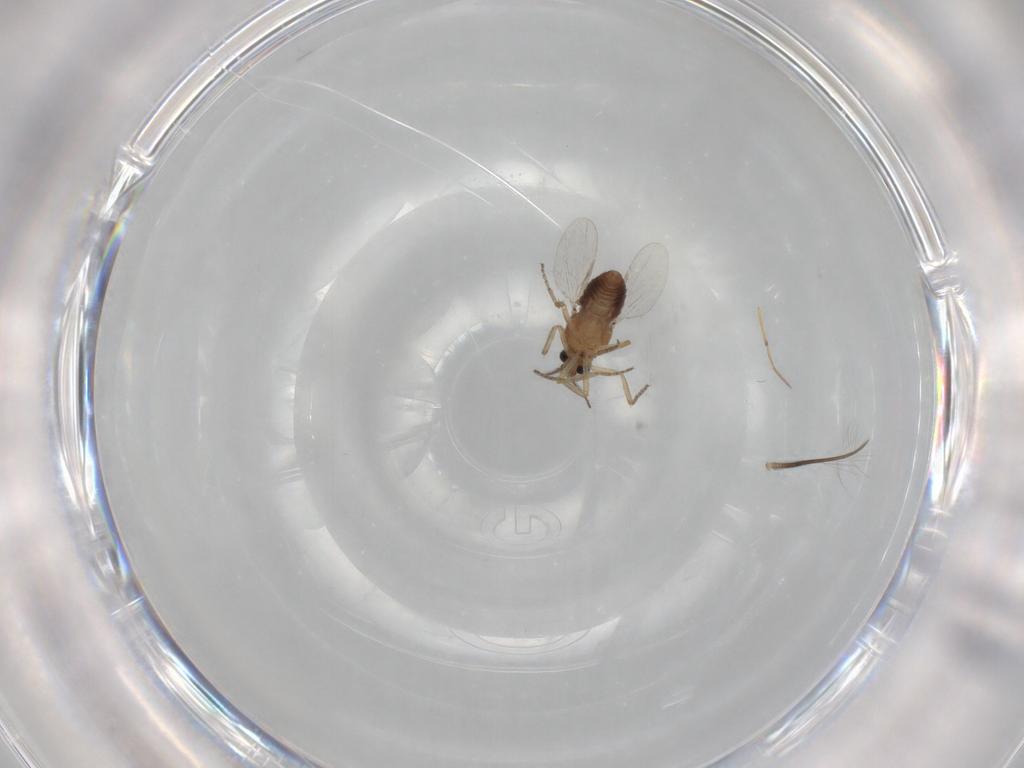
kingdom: Animalia
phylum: Arthropoda
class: Insecta
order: Diptera
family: Ceratopogonidae
